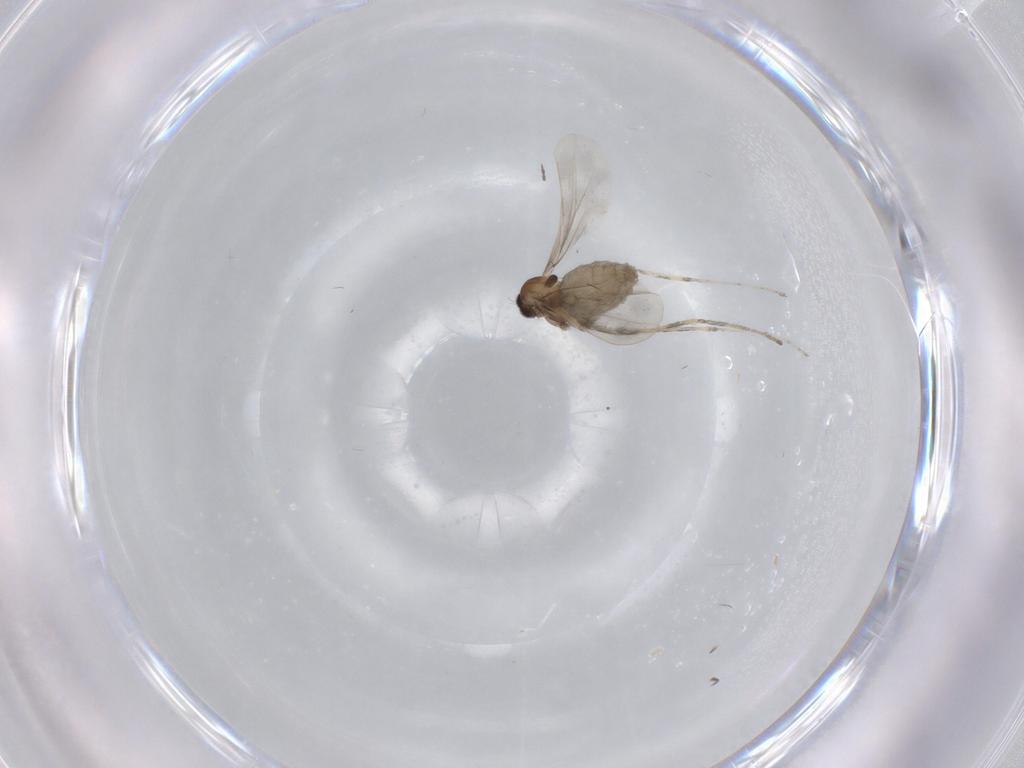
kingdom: Animalia
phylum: Arthropoda
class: Insecta
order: Diptera
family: Cecidomyiidae
